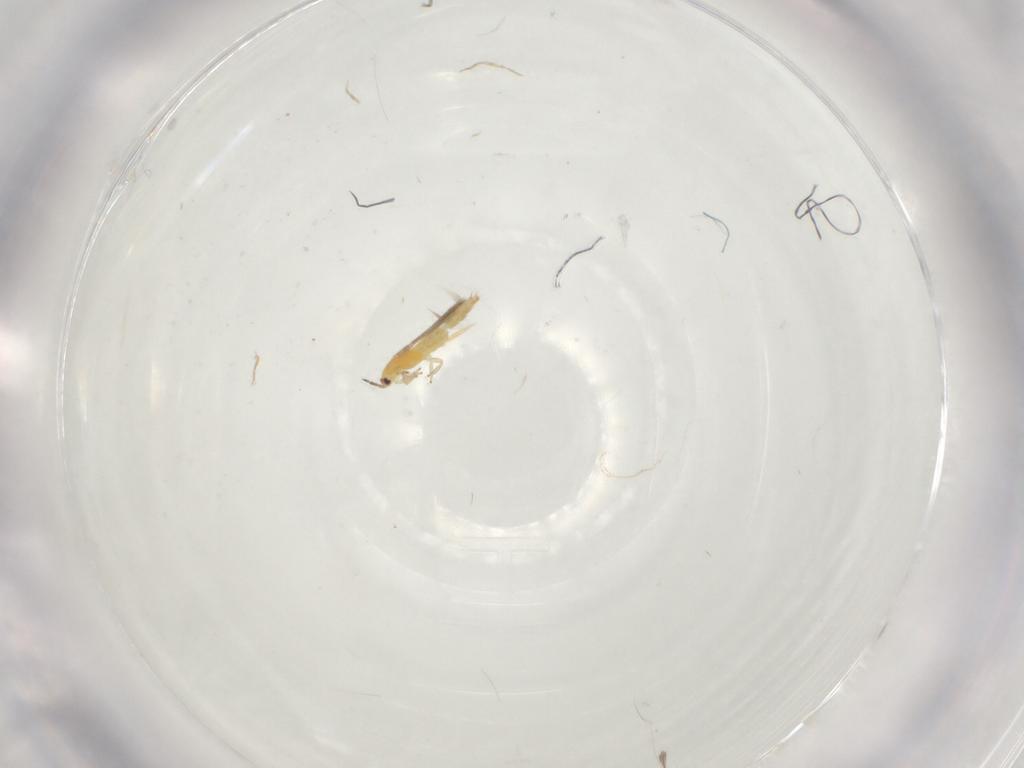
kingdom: Animalia
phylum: Arthropoda
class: Insecta
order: Thysanoptera
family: Thripidae
